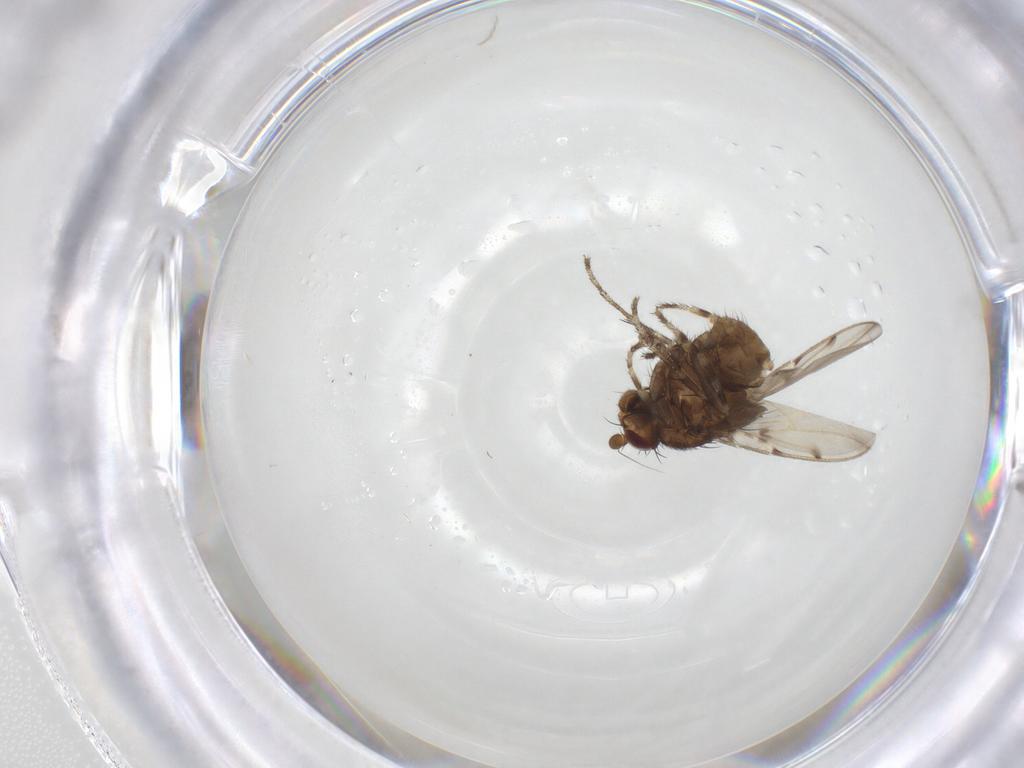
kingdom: Animalia
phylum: Arthropoda
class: Insecta
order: Diptera
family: Sphaeroceridae
